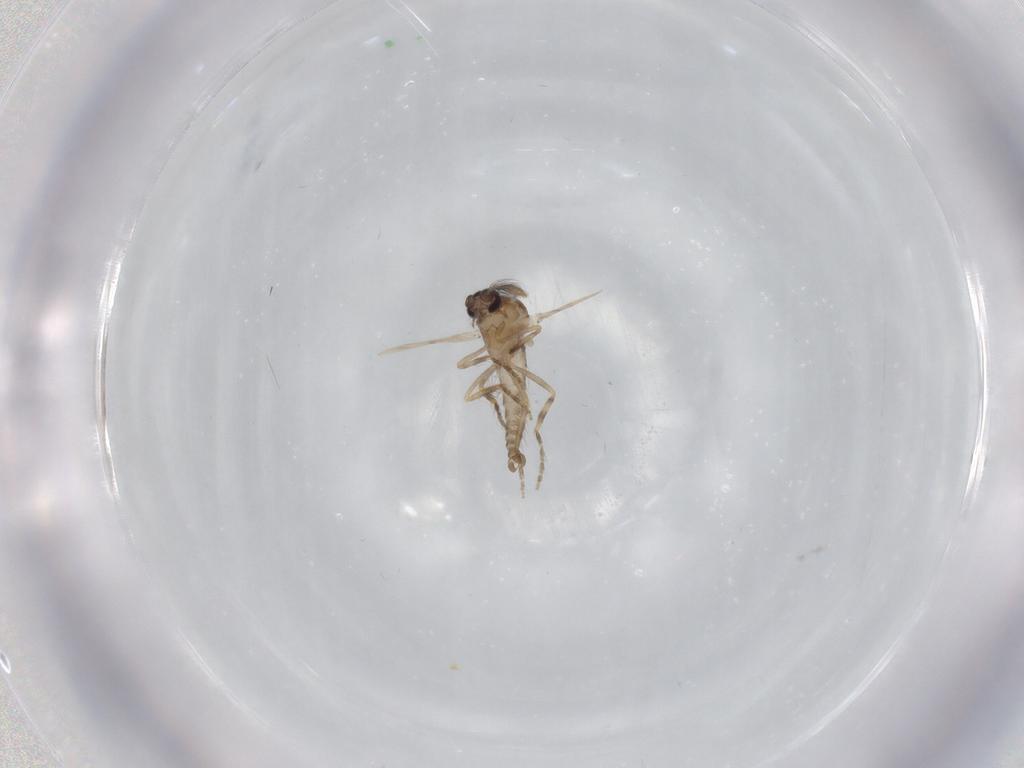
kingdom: Animalia
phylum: Arthropoda
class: Insecta
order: Diptera
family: Ceratopogonidae
